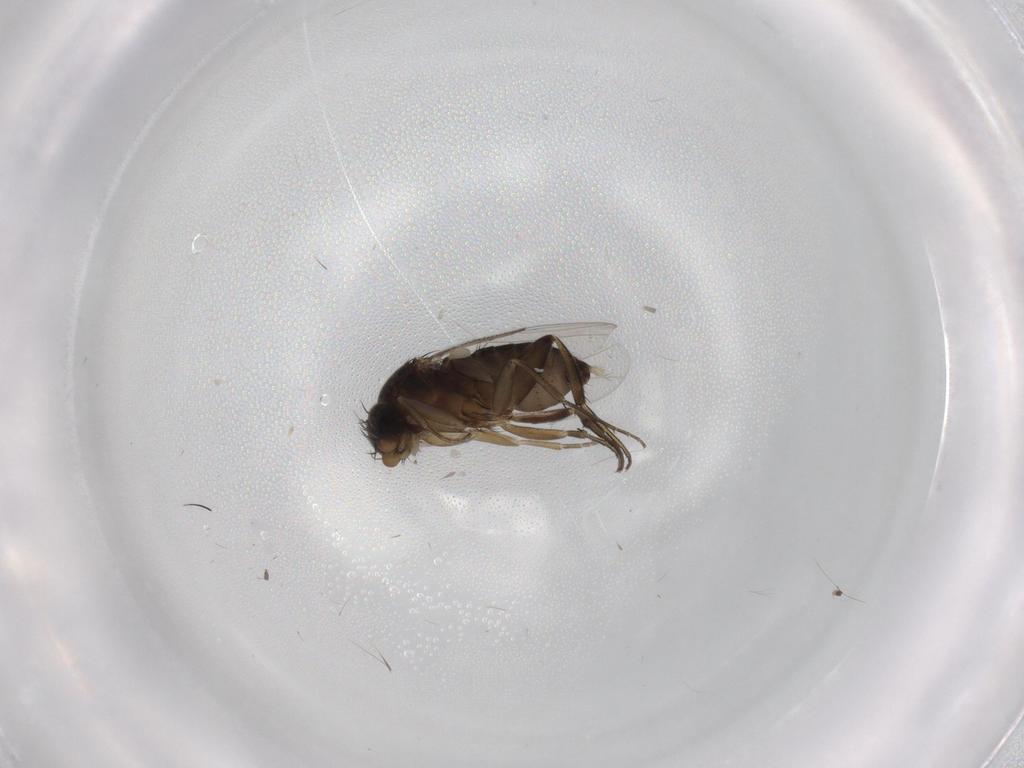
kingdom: Animalia
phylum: Arthropoda
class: Insecta
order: Diptera
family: Phoridae
